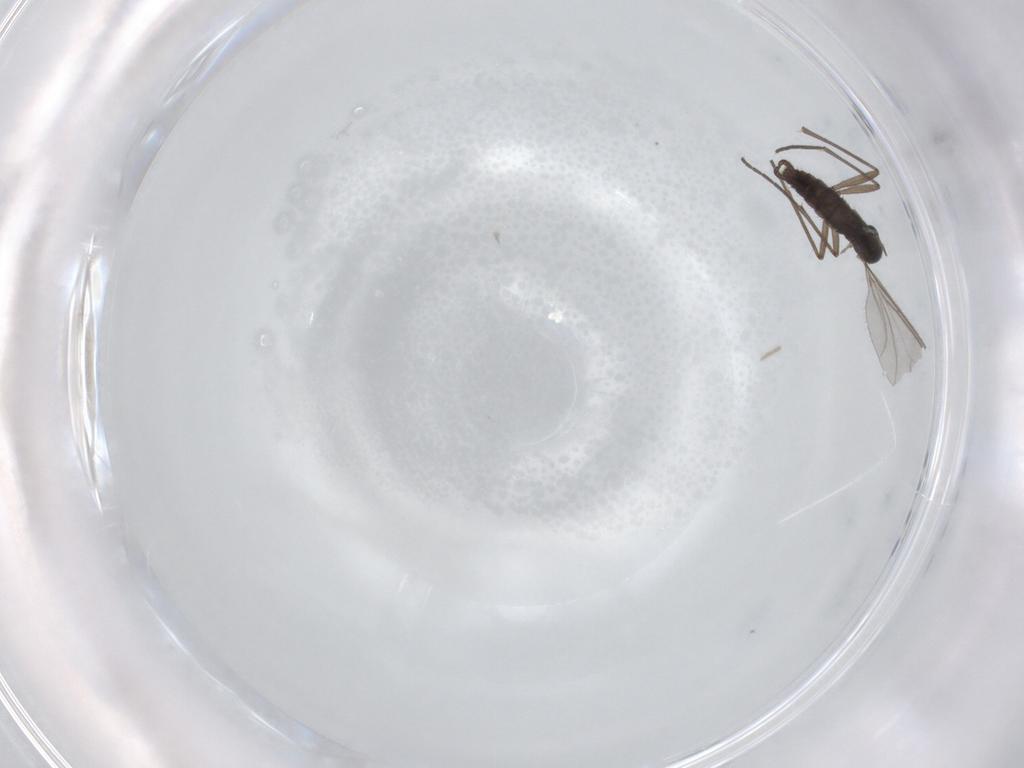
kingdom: Animalia
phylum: Arthropoda
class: Insecta
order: Diptera
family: Sciaridae
